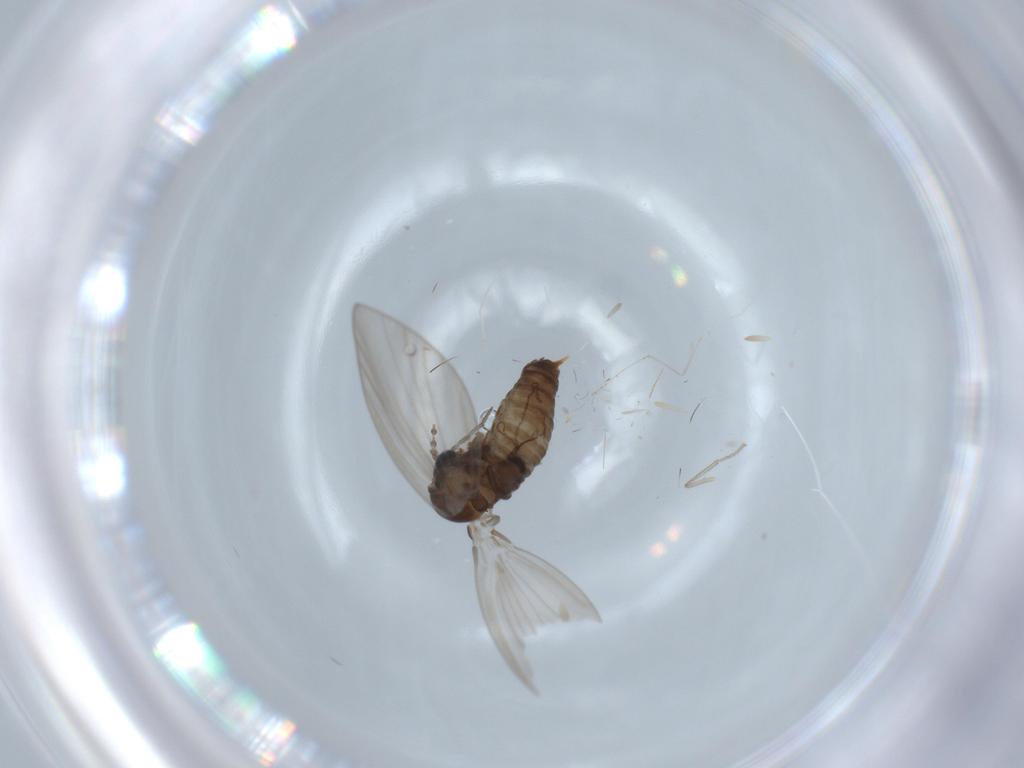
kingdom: Animalia
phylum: Arthropoda
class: Insecta
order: Diptera
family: Psychodidae
